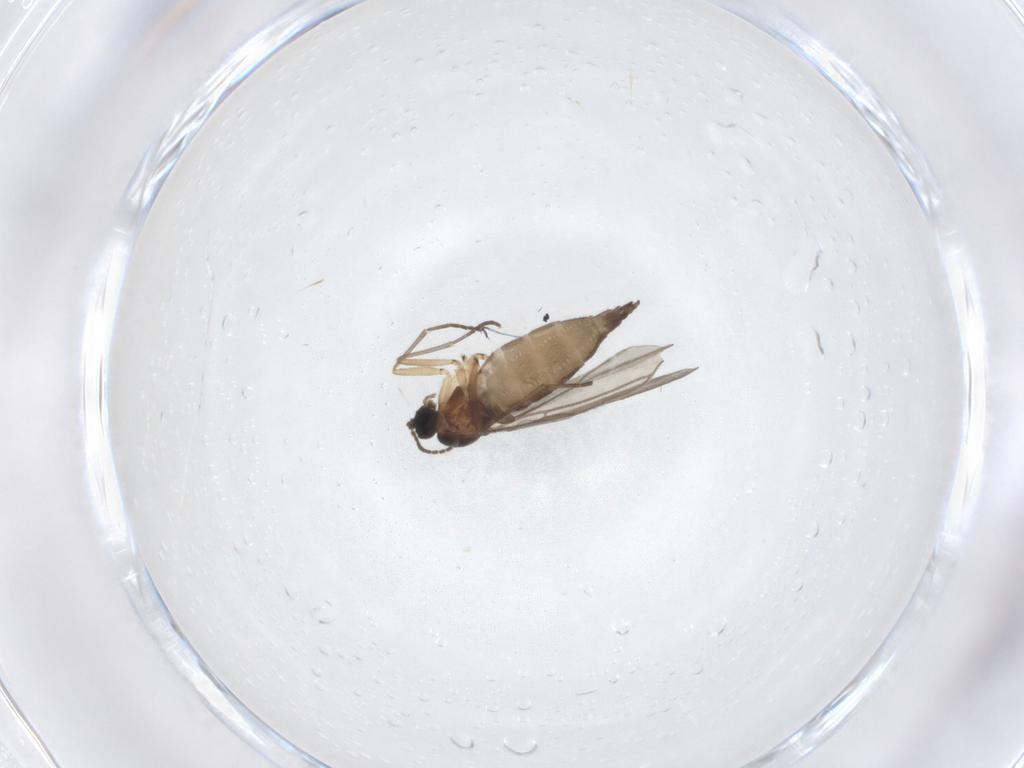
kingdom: Animalia
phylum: Arthropoda
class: Insecta
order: Diptera
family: Sciaridae
